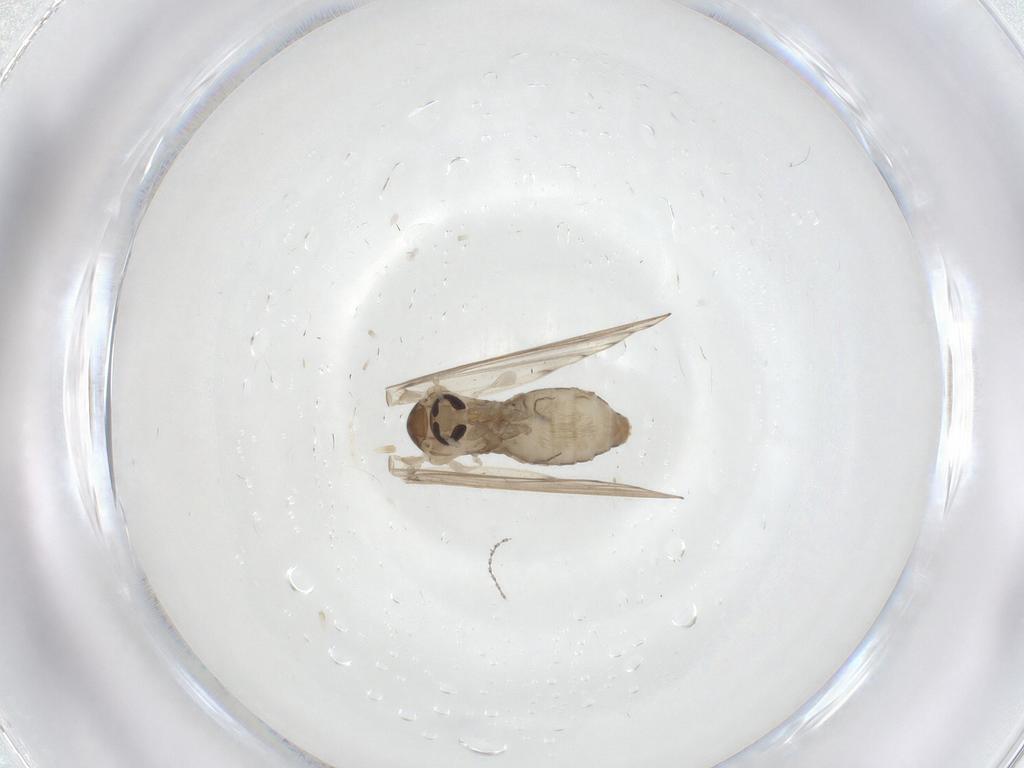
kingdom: Animalia
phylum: Arthropoda
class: Insecta
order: Diptera
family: Psychodidae
